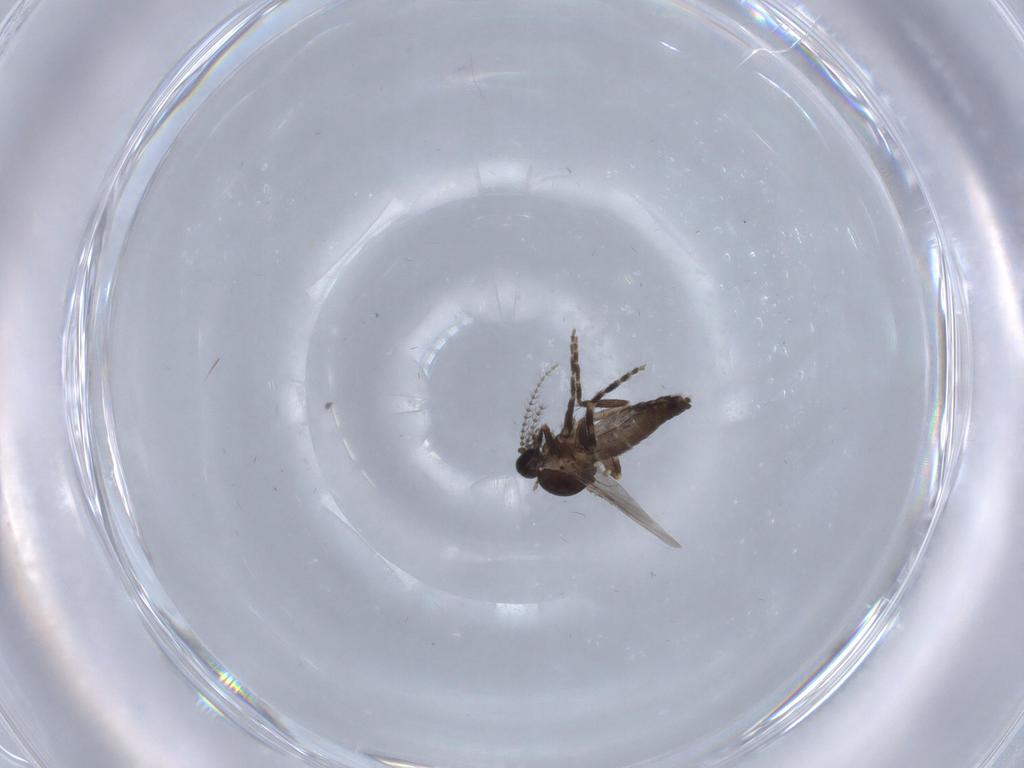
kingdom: Animalia
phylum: Arthropoda
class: Insecta
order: Diptera
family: Ceratopogonidae
